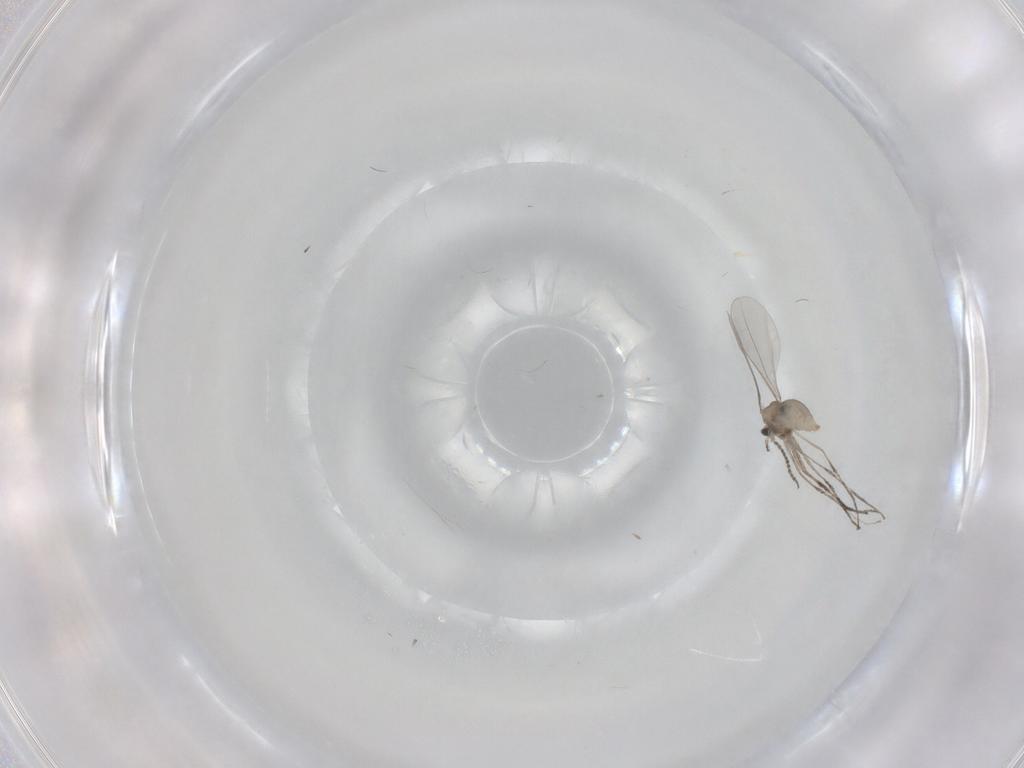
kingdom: Animalia
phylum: Arthropoda
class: Insecta
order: Diptera
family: Cecidomyiidae
